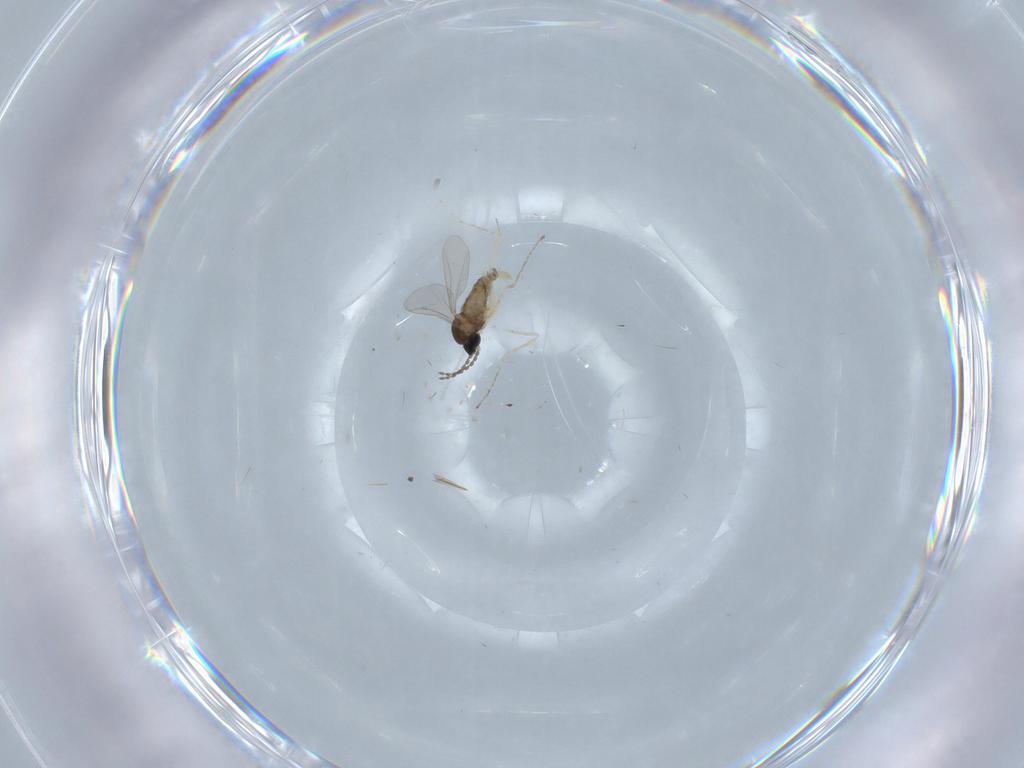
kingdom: Animalia
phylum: Arthropoda
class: Insecta
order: Diptera
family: Cecidomyiidae
